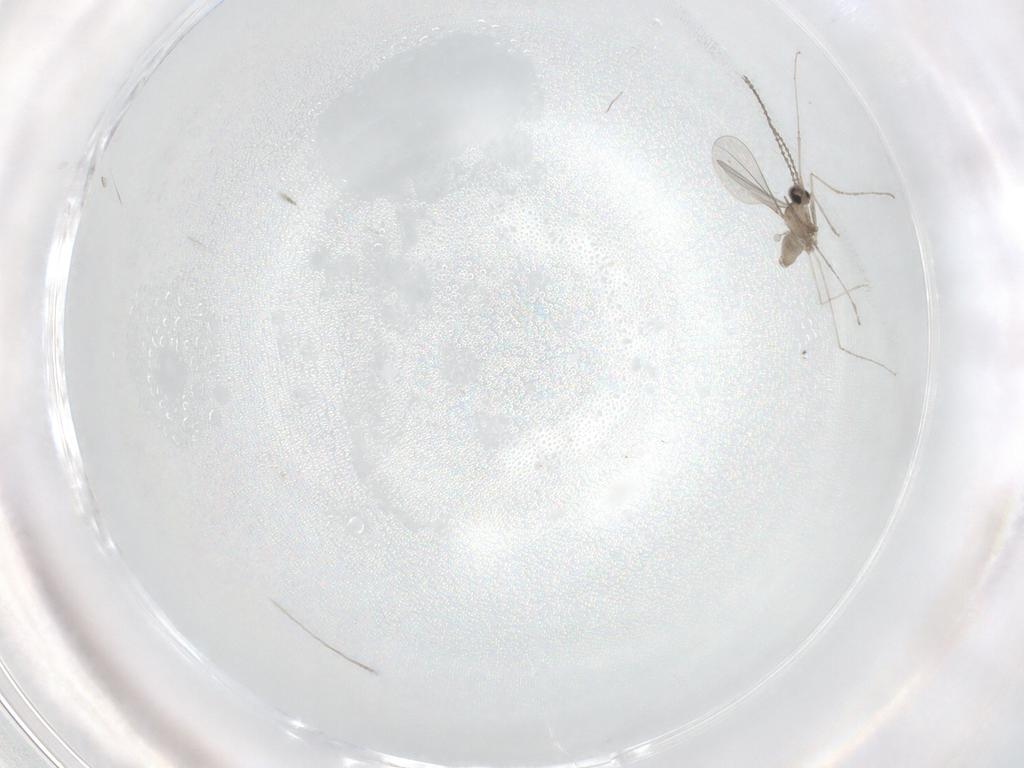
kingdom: Animalia
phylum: Arthropoda
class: Insecta
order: Diptera
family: Cecidomyiidae
